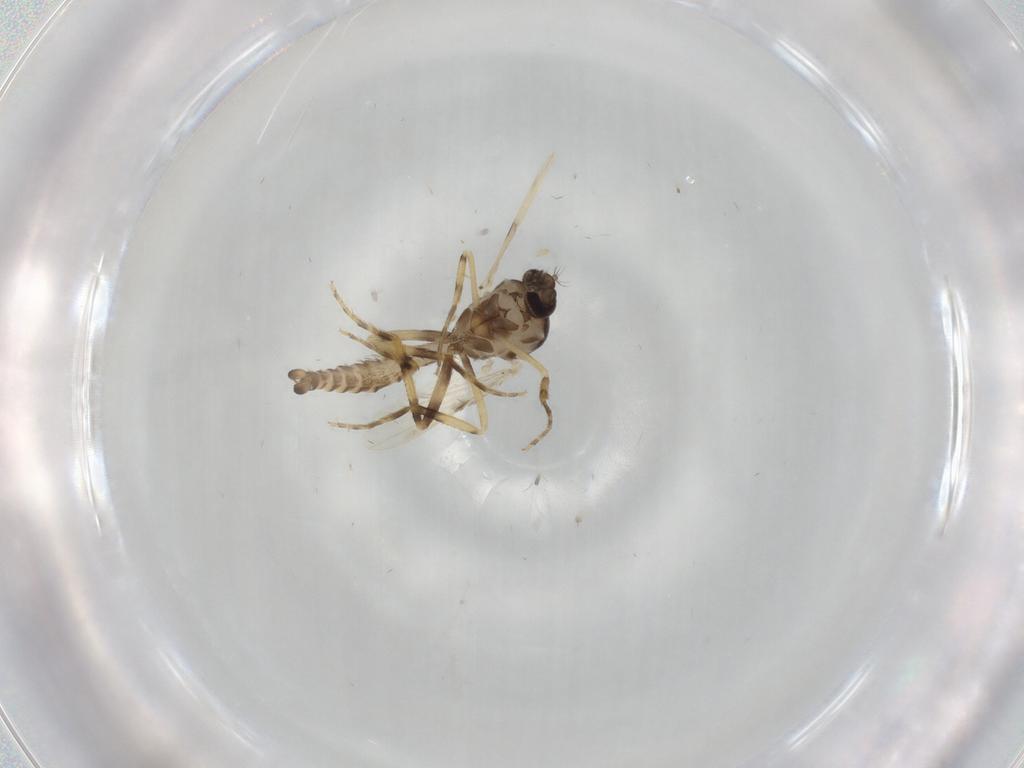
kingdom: Animalia
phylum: Arthropoda
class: Insecta
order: Diptera
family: Ceratopogonidae
